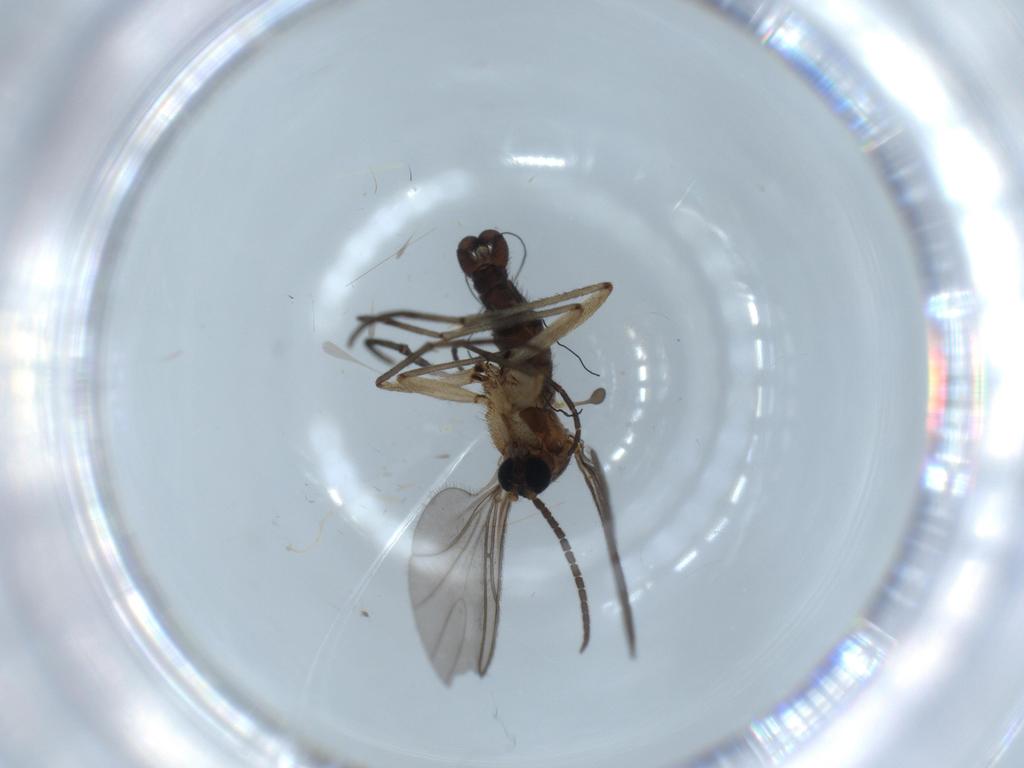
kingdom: Animalia
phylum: Arthropoda
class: Insecta
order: Diptera
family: Sciaridae
